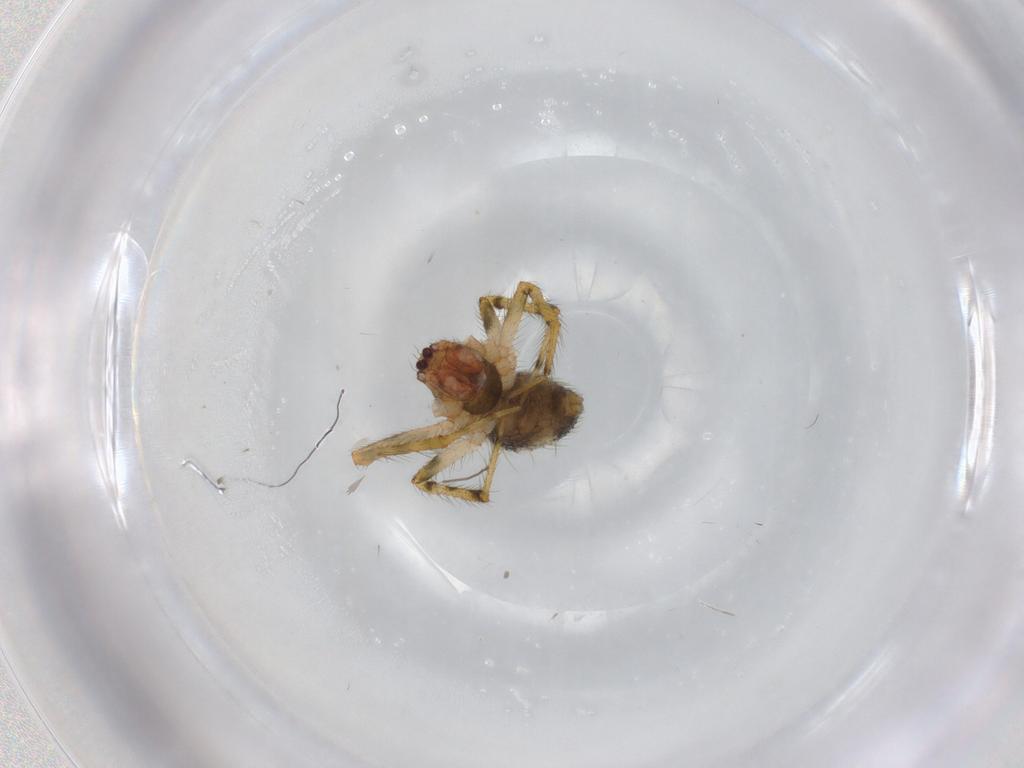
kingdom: Animalia
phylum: Arthropoda
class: Arachnida
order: Araneae
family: Theridiidae
